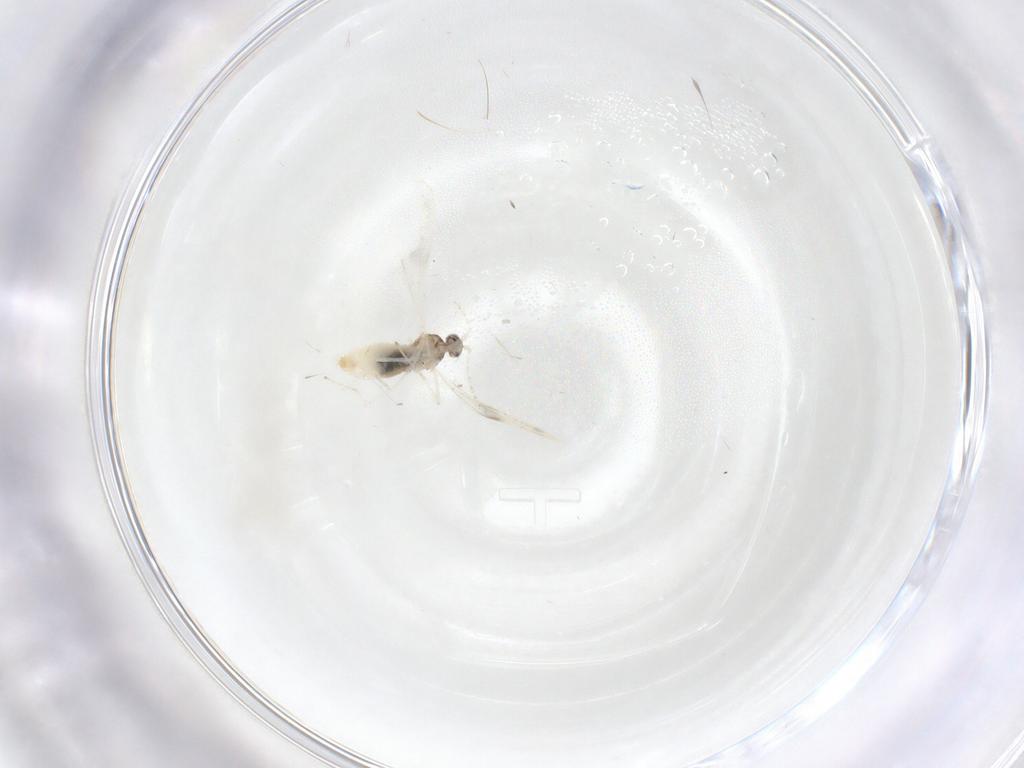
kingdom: Animalia
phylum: Arthropoda
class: Insecta
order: Diptera
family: Cecidomyiidae
